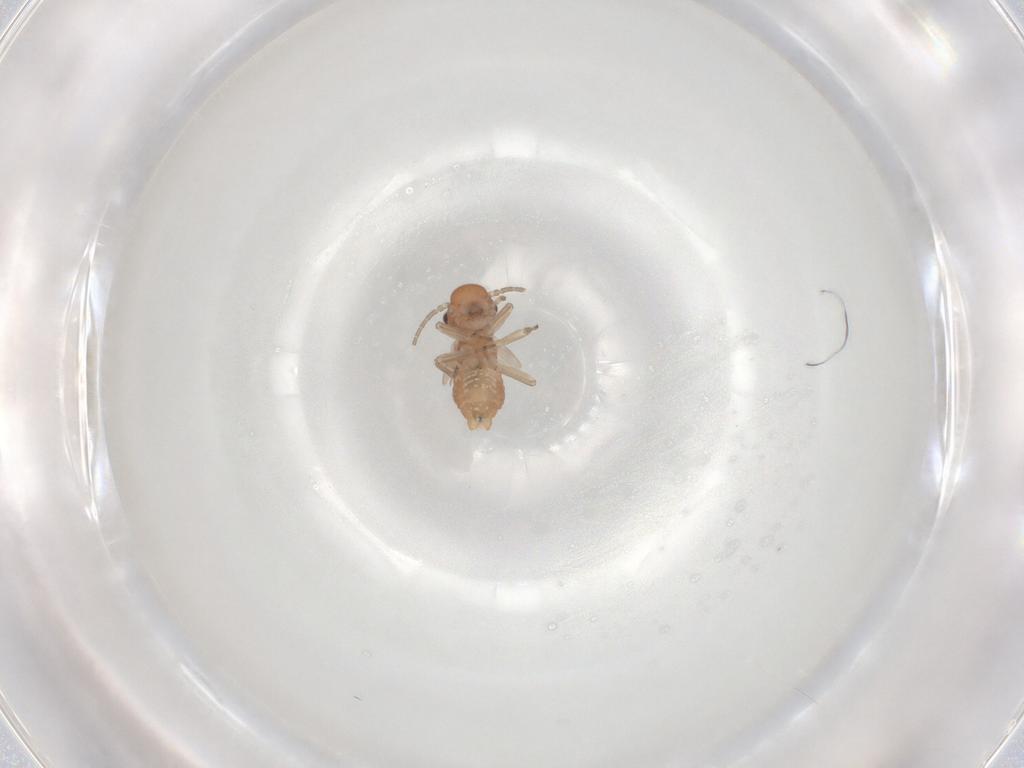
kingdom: Animalia
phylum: Arthropoda
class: Insecta
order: Psocodea
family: Caeciliusidae
